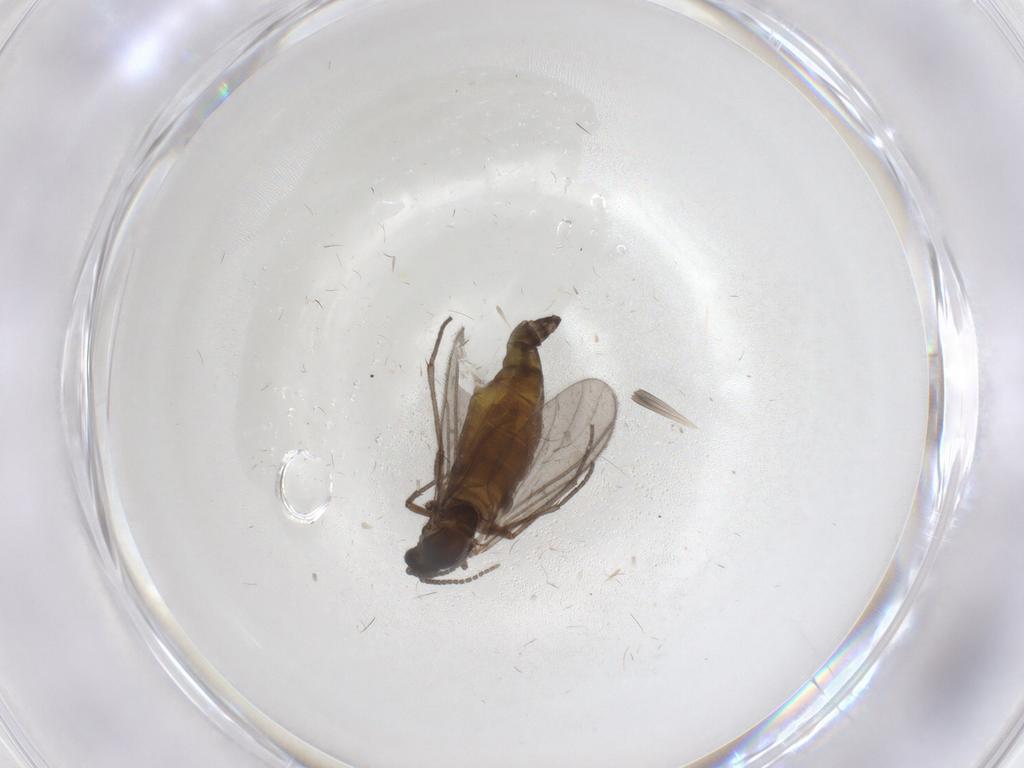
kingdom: Animalia
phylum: Arthropoda
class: Insecta
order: Diptera
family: Sciaridae
